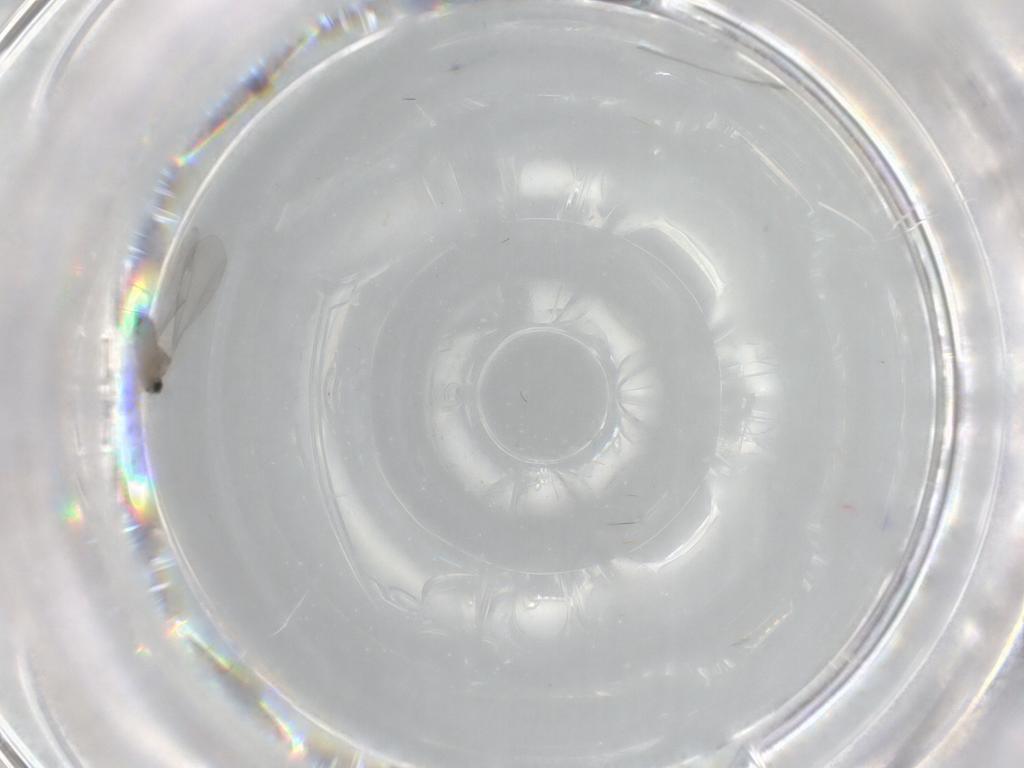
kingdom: Animalia
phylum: Arthropoda
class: Insecta
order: Diptera
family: Cecidomyiidae
